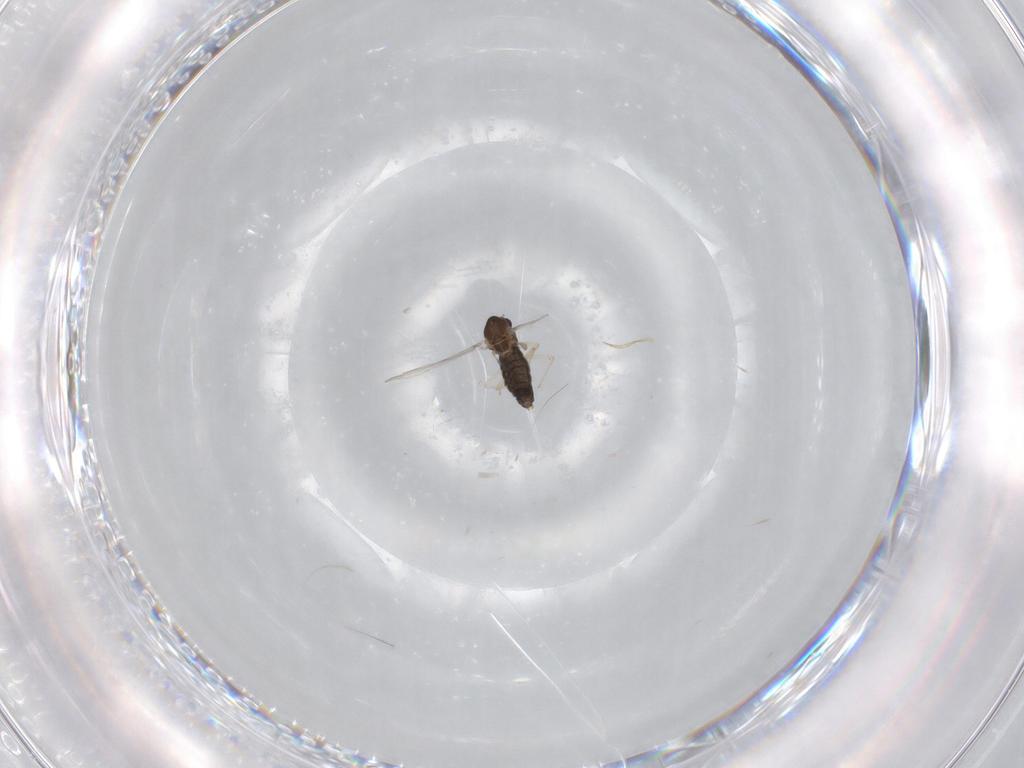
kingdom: Animalia
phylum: Arthropoda
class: Insecta
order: Diptera
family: Chironomidae
